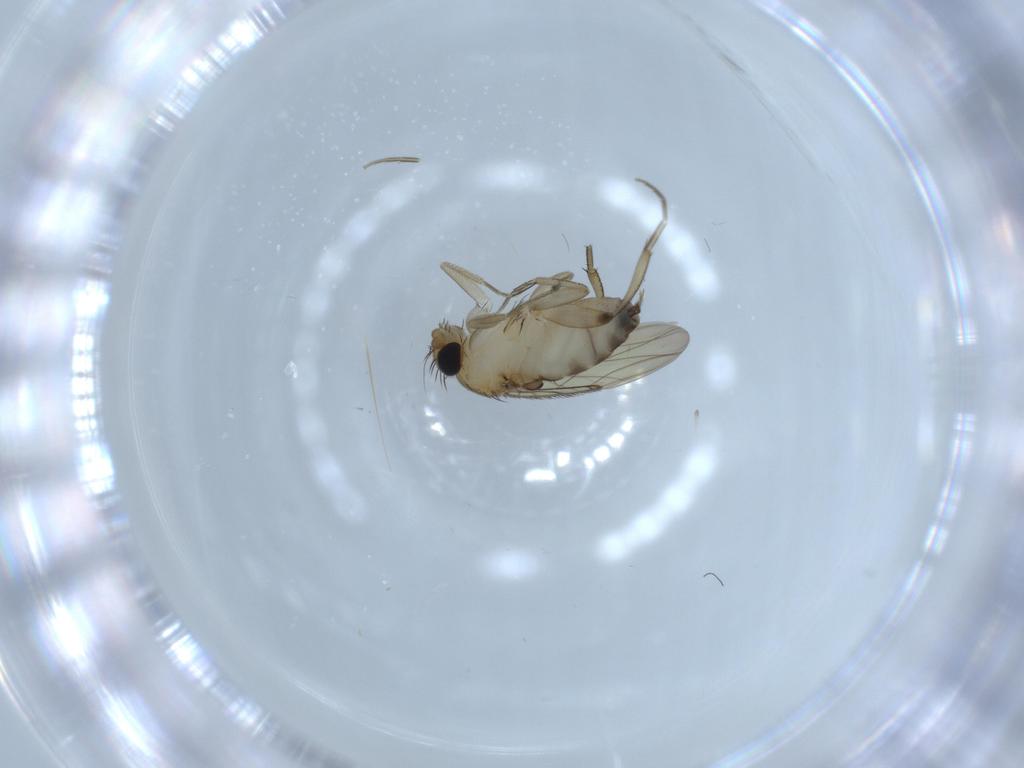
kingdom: Animalia
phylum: Arthropoda
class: Insecta
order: Diptera
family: Phoridae
